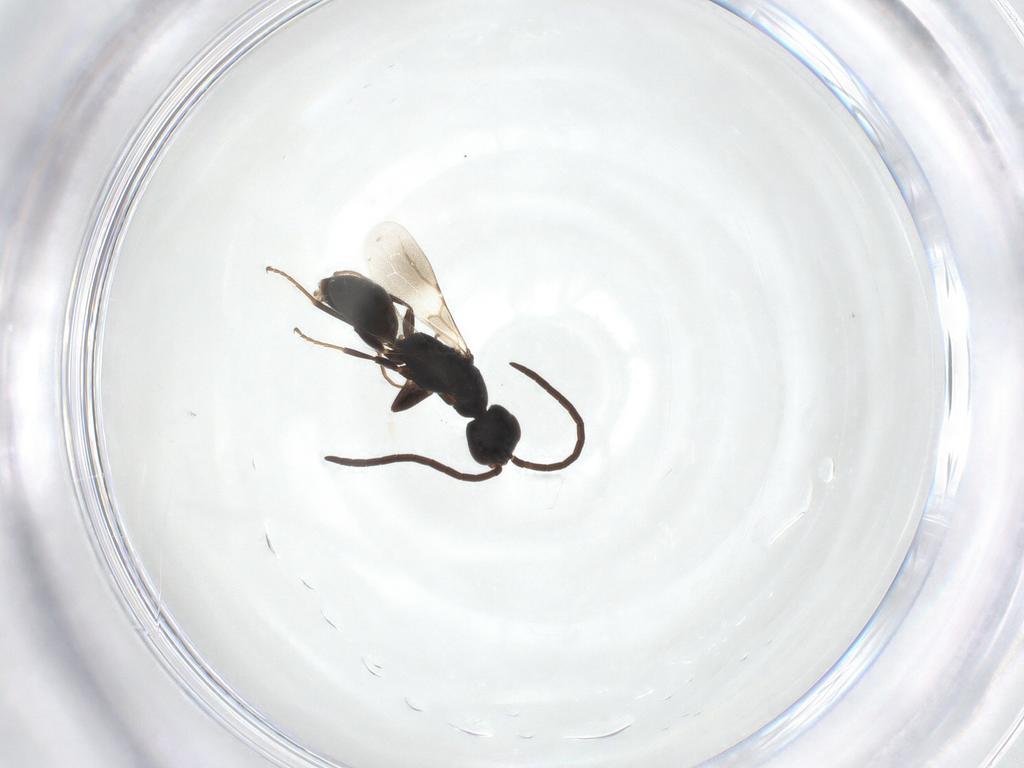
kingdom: Animalia
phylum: Arthropoda
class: Insecta
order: Hymenoptera
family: Bethylidae
